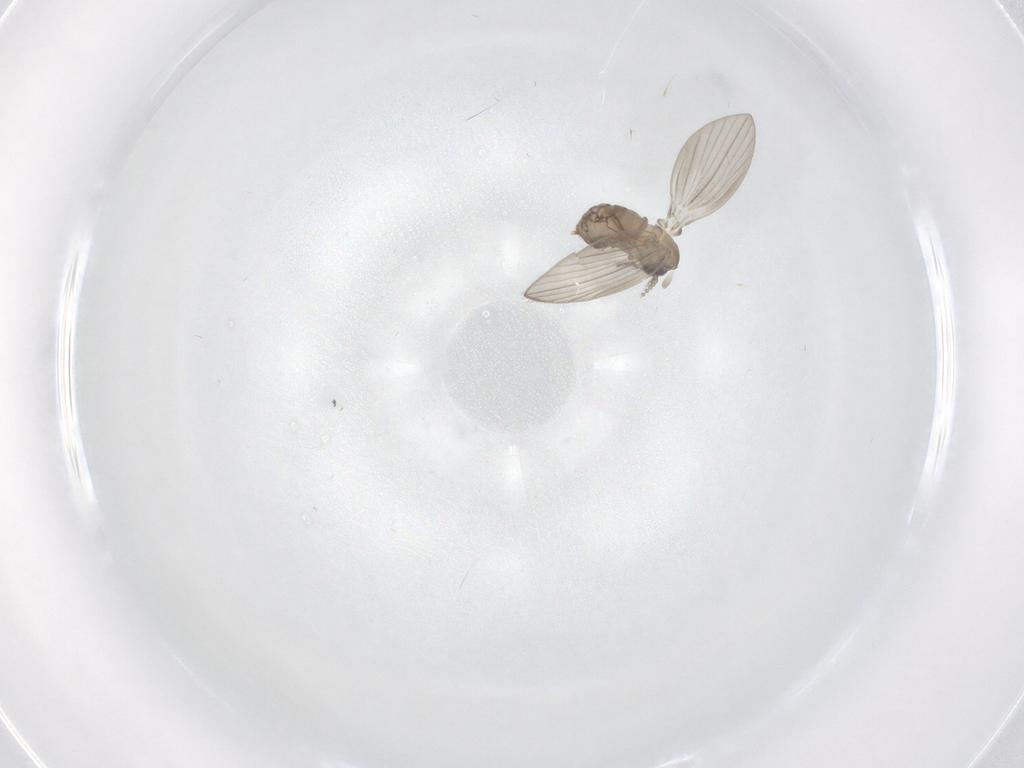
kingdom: Animalia
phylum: Arthropoda
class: Insecta
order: Diptera
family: Psychodidae
